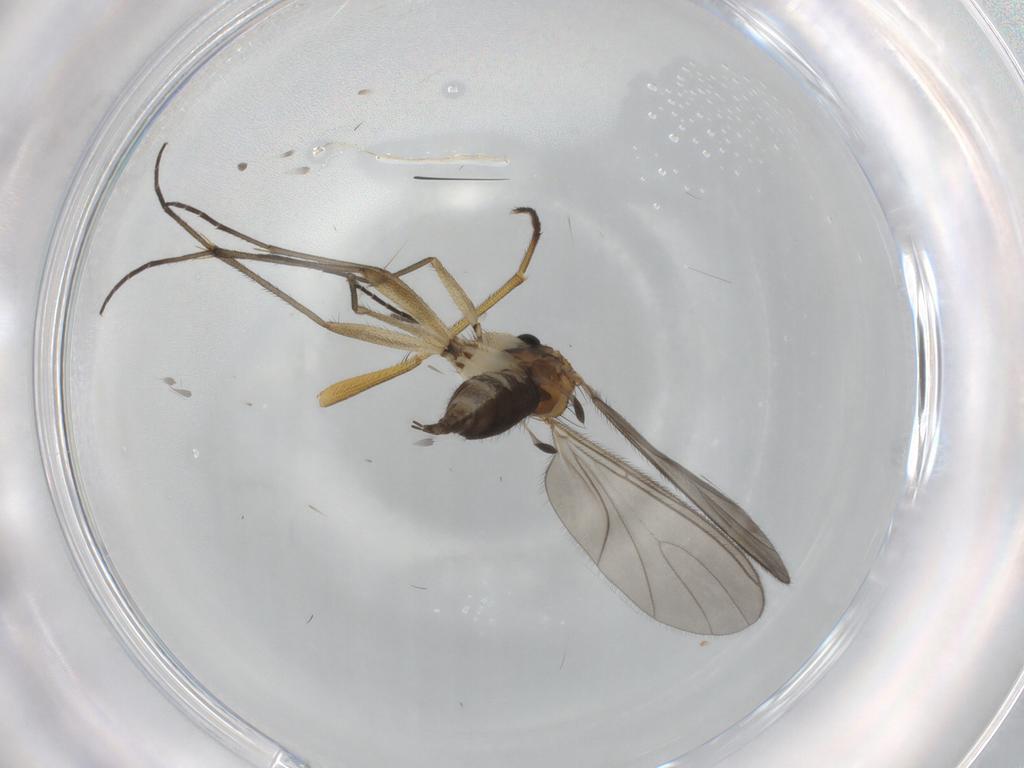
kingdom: Animalia
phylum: Arthropoda
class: Insecta
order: Diptera
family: Sciaridae
